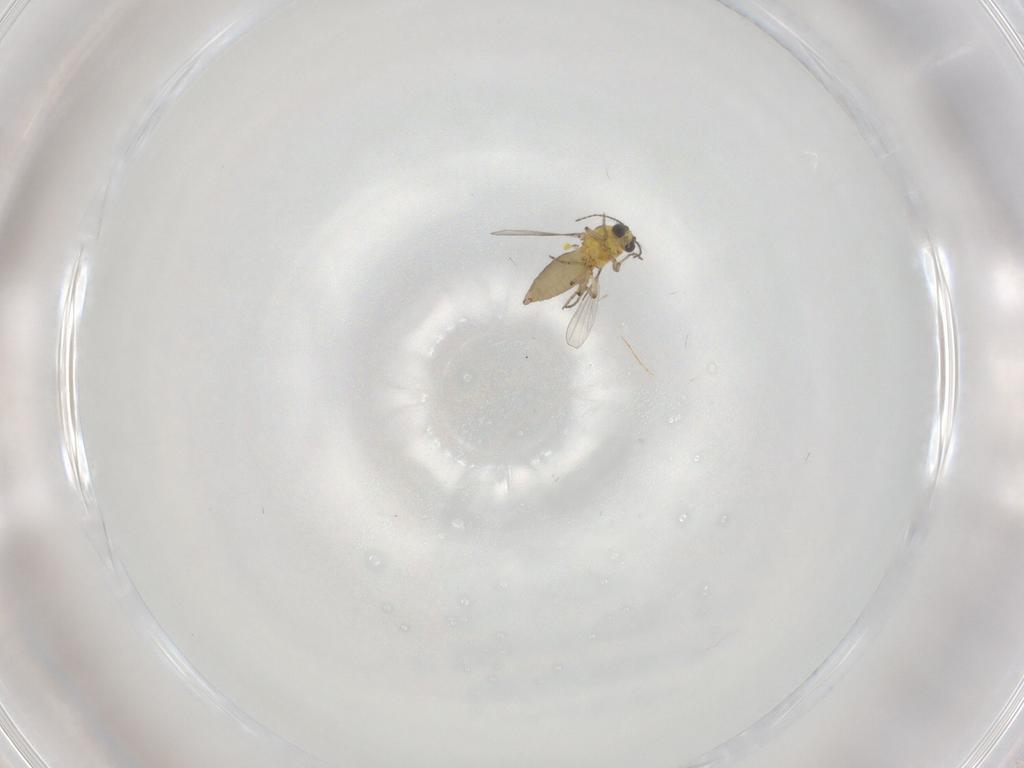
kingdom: Animalia
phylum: Arthropoda
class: Insecta
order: Diptera
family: Ceratopogonidae
